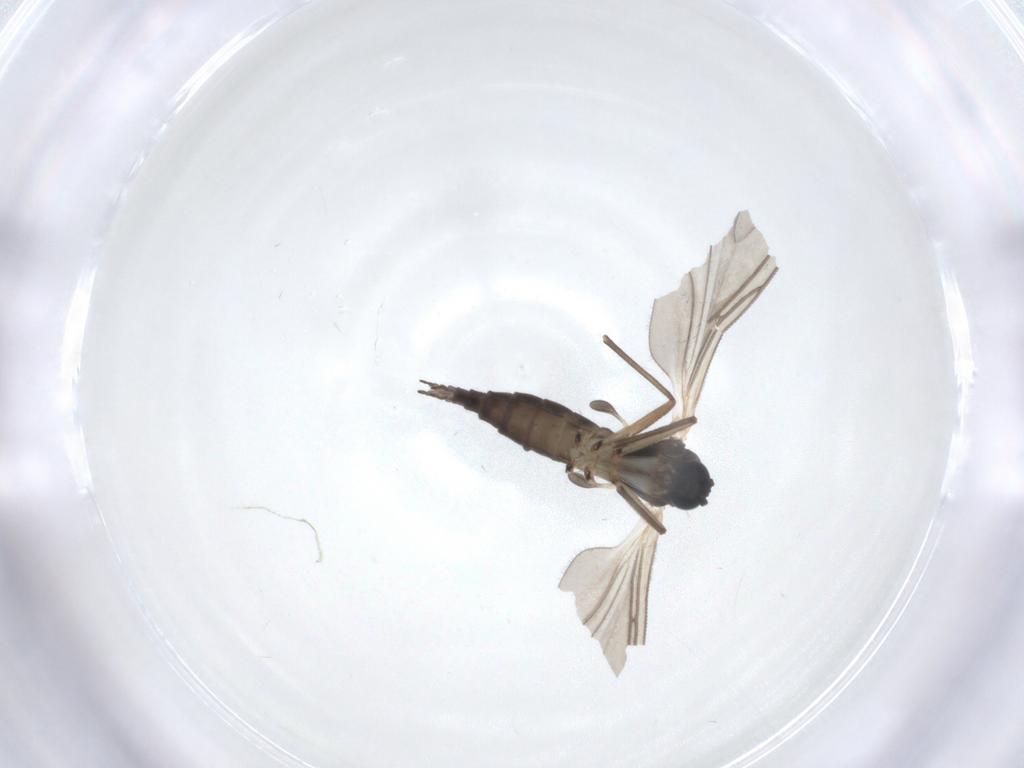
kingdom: Animalia
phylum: Arthropoda
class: Insecta
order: Diptera
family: Sciaridae
